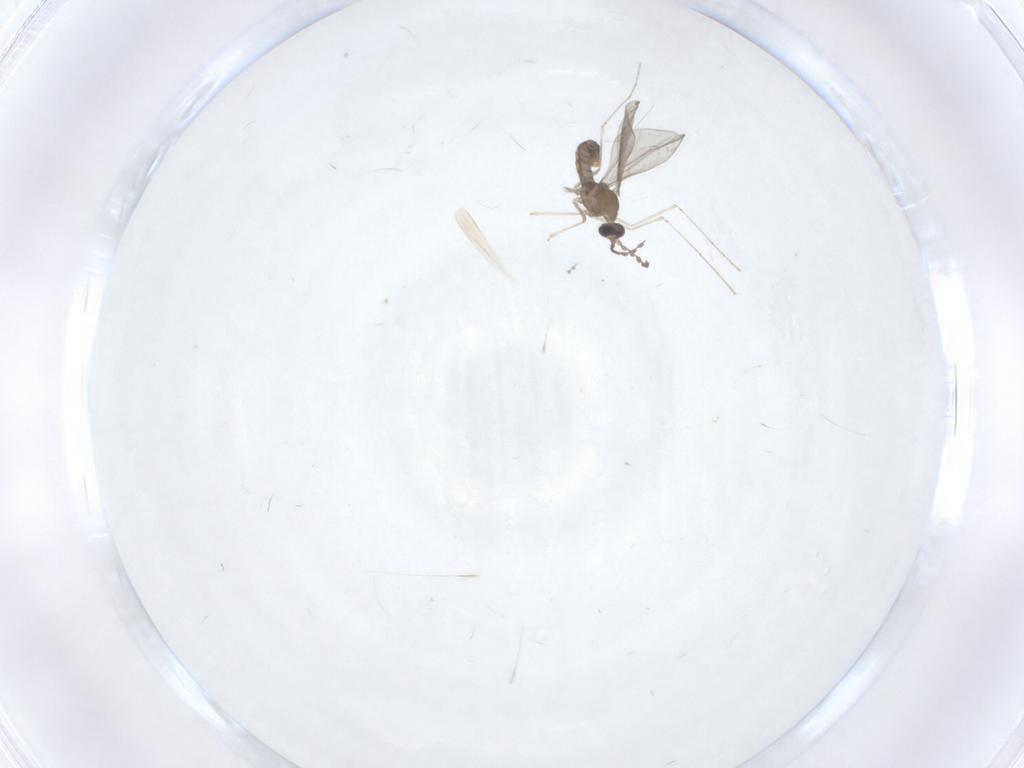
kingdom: Animalia
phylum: Arthropoda
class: Insecta
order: Diptera
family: Cecidomyiidae
